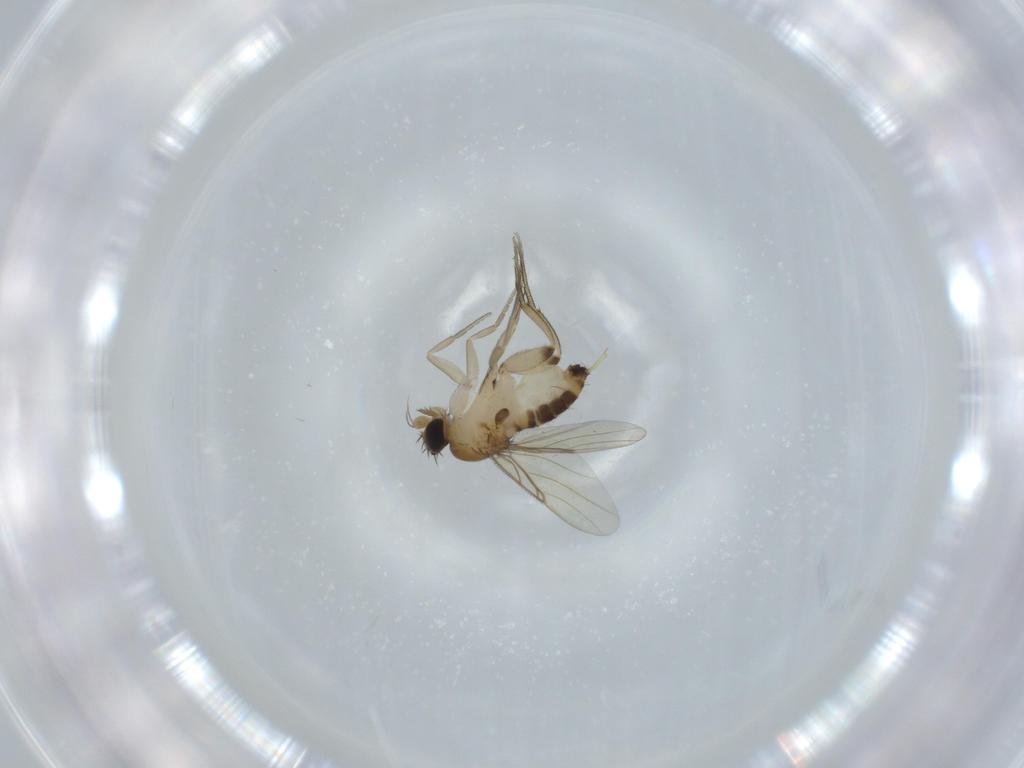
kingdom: Animalia
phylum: Arthropoda
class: Insecta
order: Diptera
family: Phoridae
